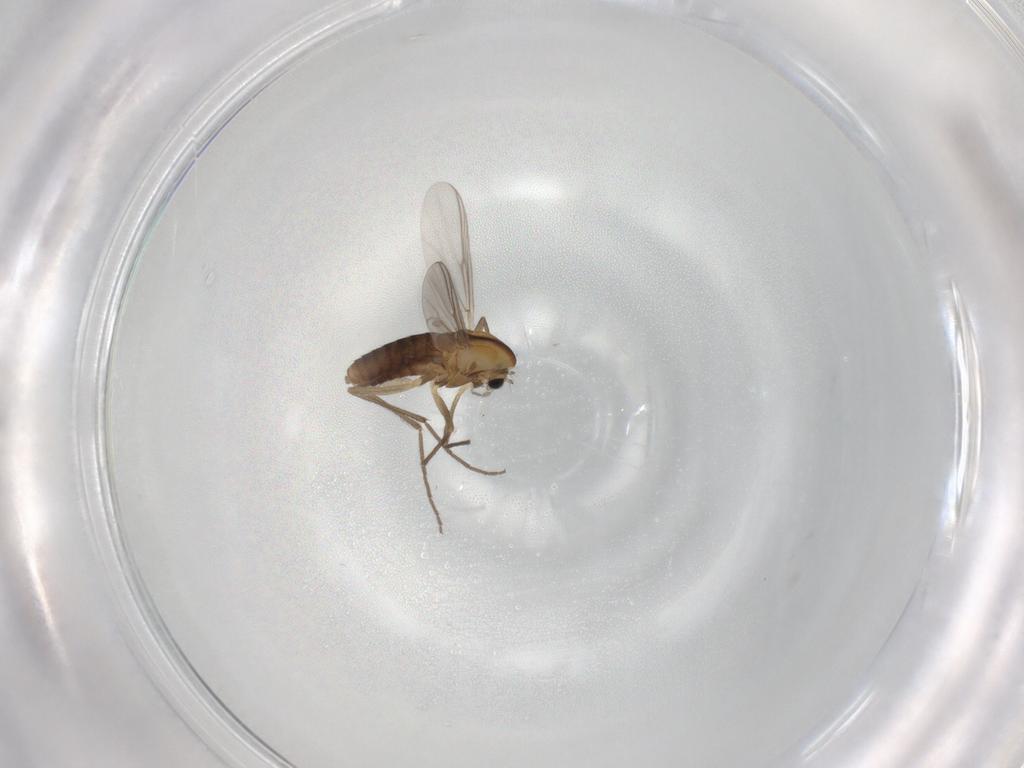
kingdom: Animalia
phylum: Arthropoda
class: Insecta
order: Diptera
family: Chironomidae
